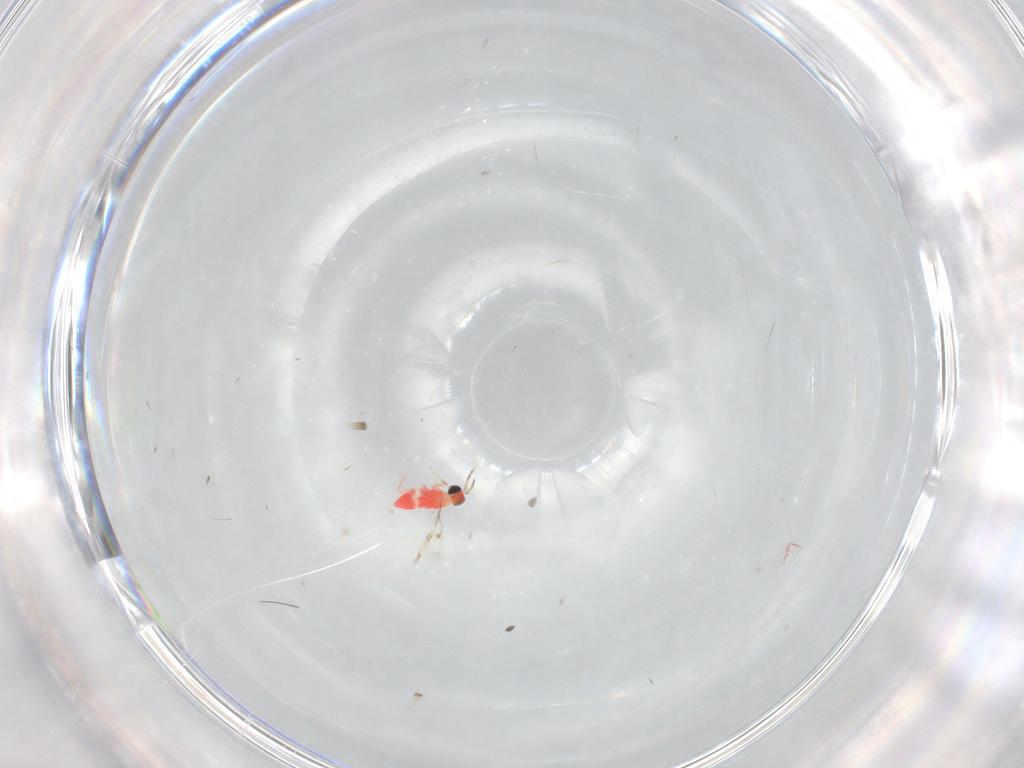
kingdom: Animalia
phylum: Arthropoda
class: Insecta
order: Hymenoptera
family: Trichogrammatidae
